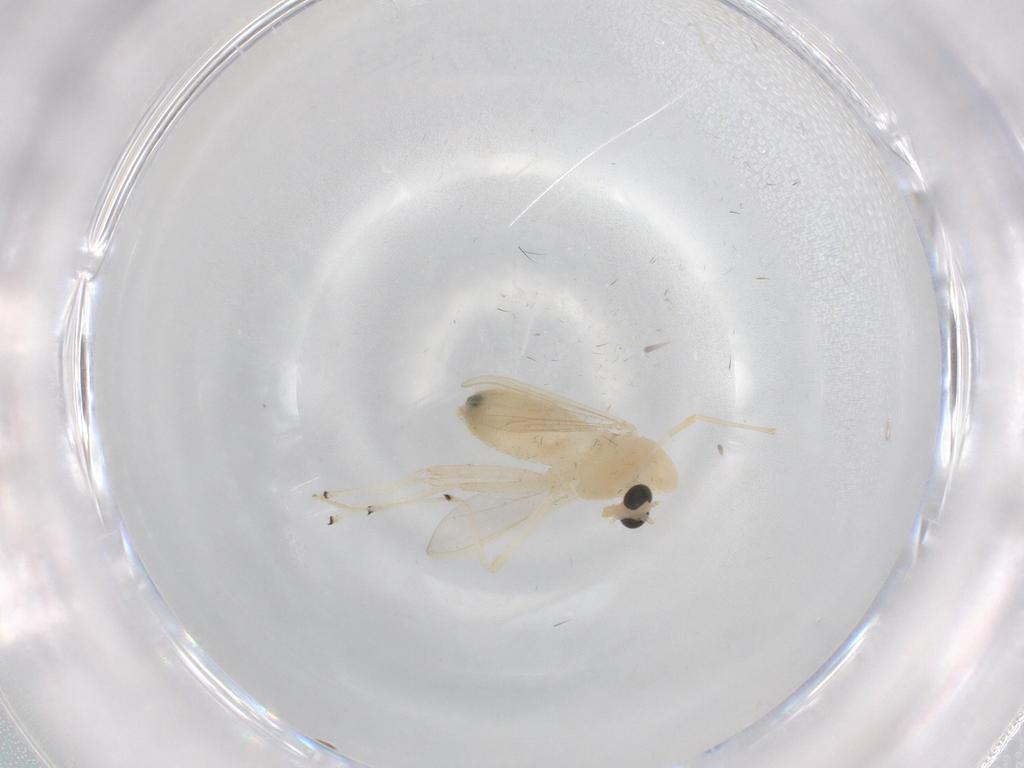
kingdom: Animalia
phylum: Arthropoda
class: Insecta
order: Diptera
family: Chironomidae
